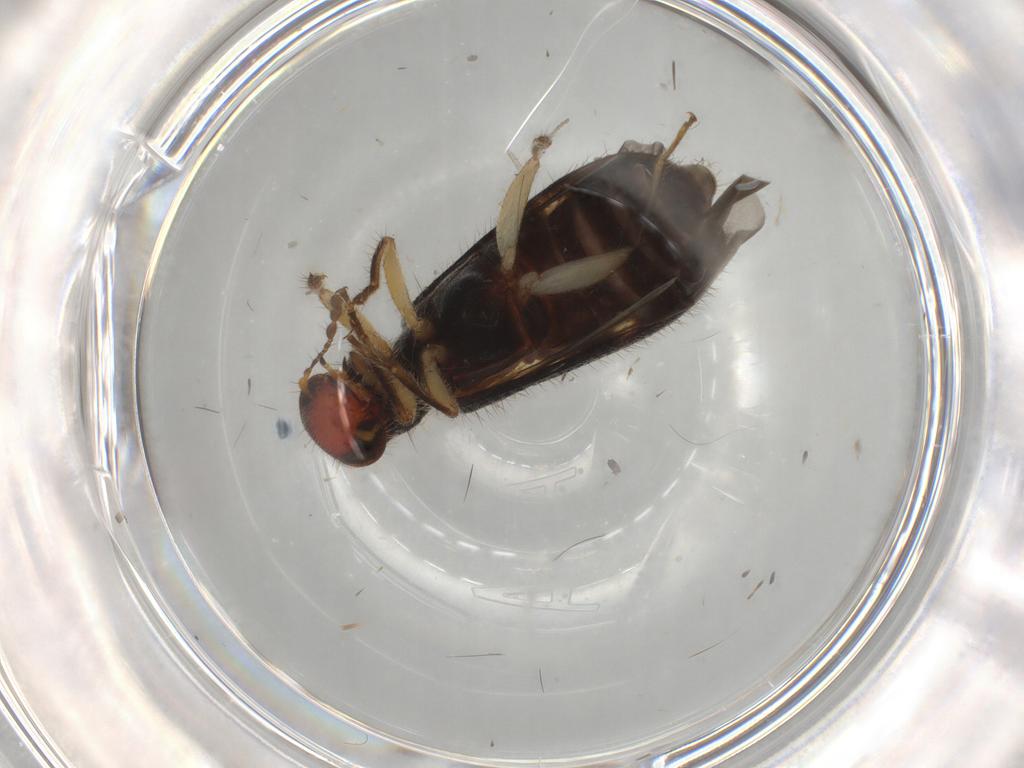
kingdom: Animalia
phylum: Arthropoda
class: Insecta
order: Coleoptera
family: Cleridae
